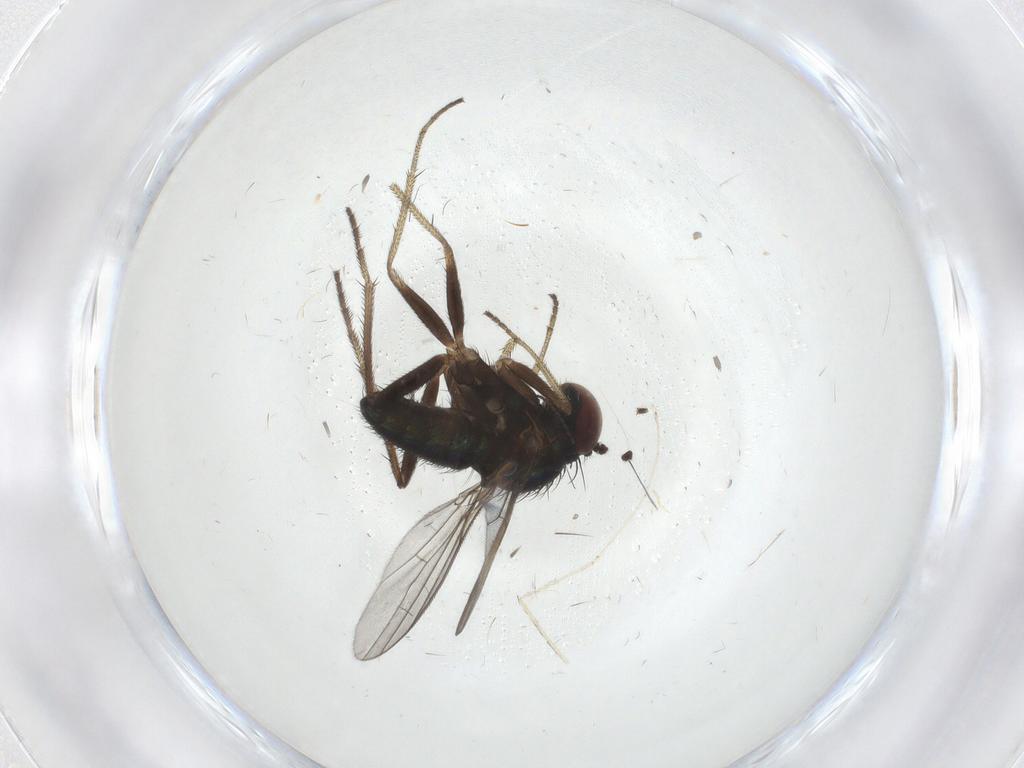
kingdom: Animalia
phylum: Arthropoda
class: Insecta
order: Diptera
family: Cecidomyiidae
